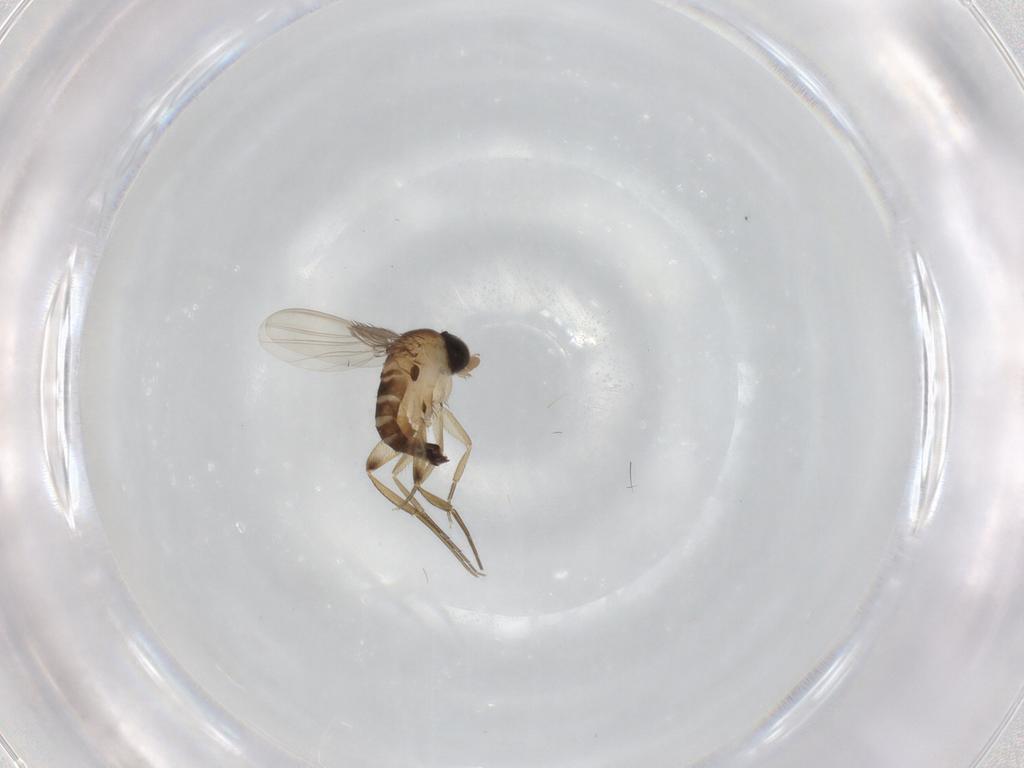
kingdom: Animalia
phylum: Arthropoda
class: Insecta
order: Diptera
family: Phoridae
